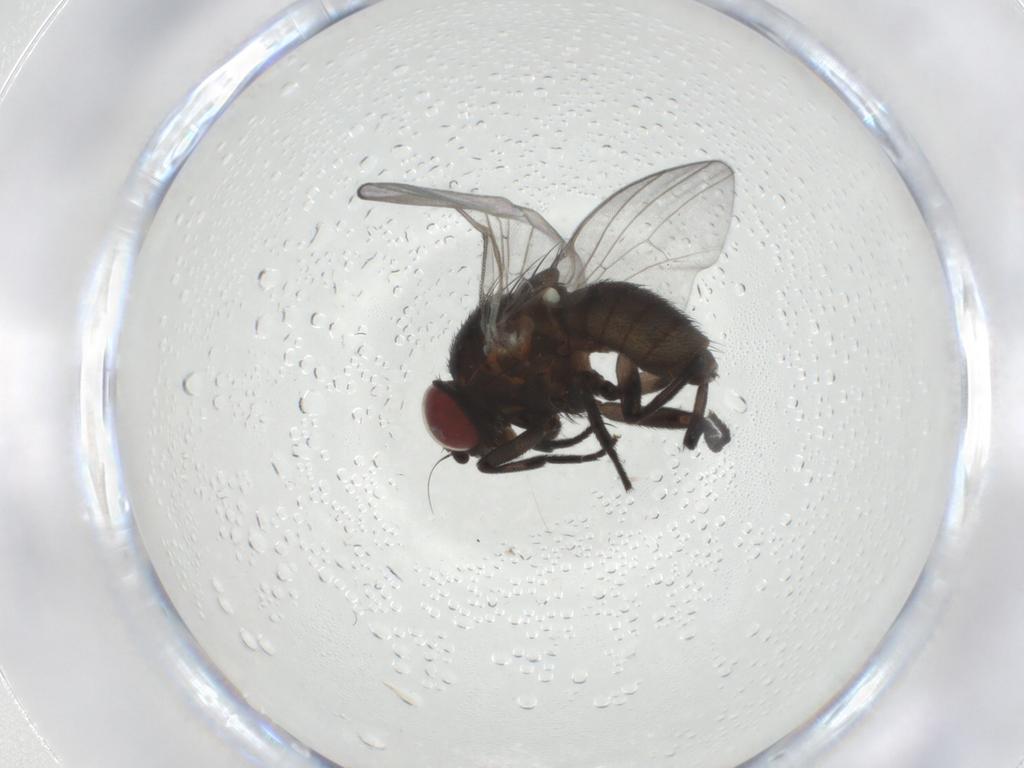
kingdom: Animalia
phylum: Arthropoda
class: Insecta
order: Diptera
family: Agromyzidae
